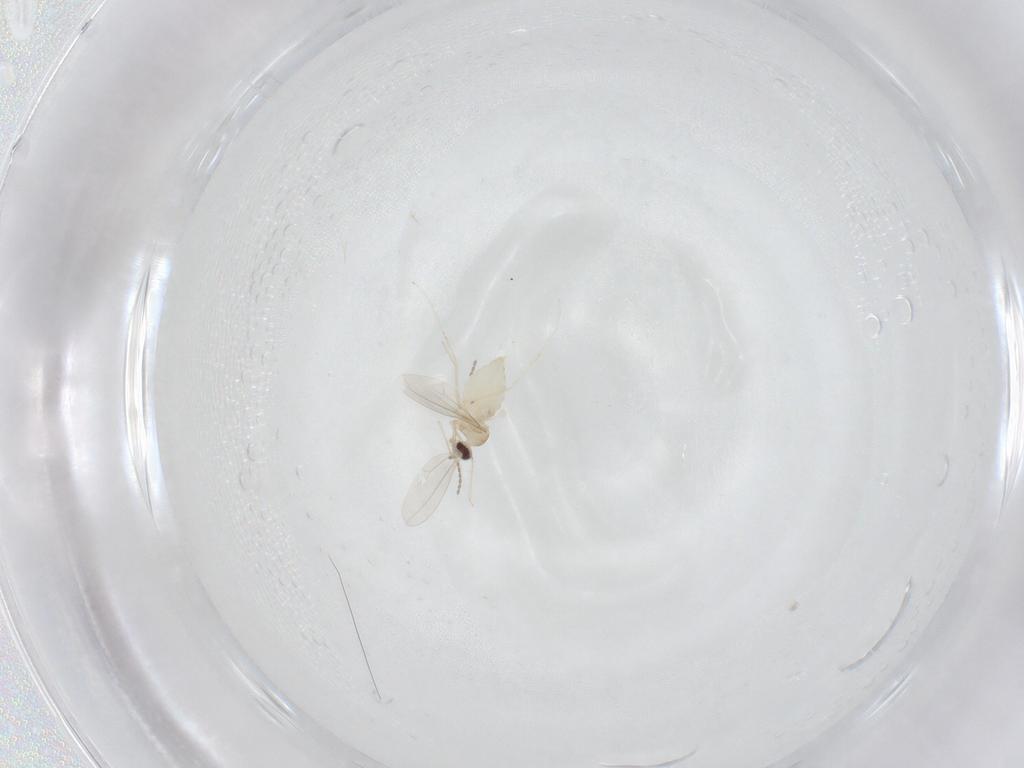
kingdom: Animalia
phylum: Arthropoda
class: Insecta
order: Diptera
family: Cecidomyiidae
